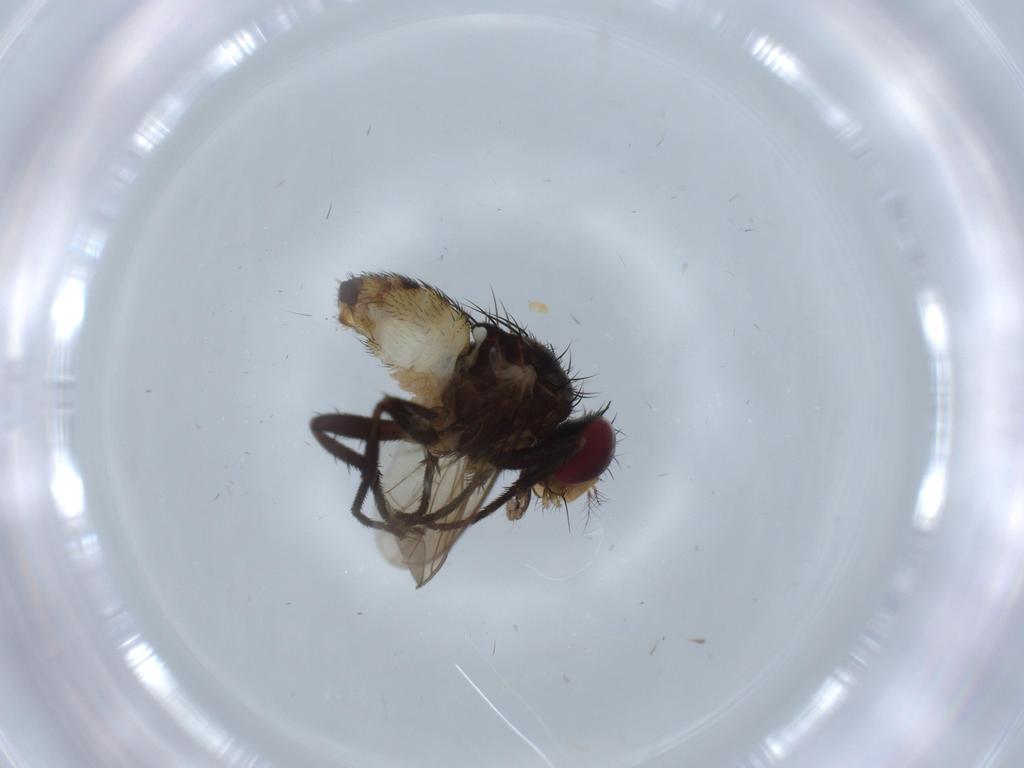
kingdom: Animalia
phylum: Arthropoda
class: Insecta
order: Diptera
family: Anthomyiidae
